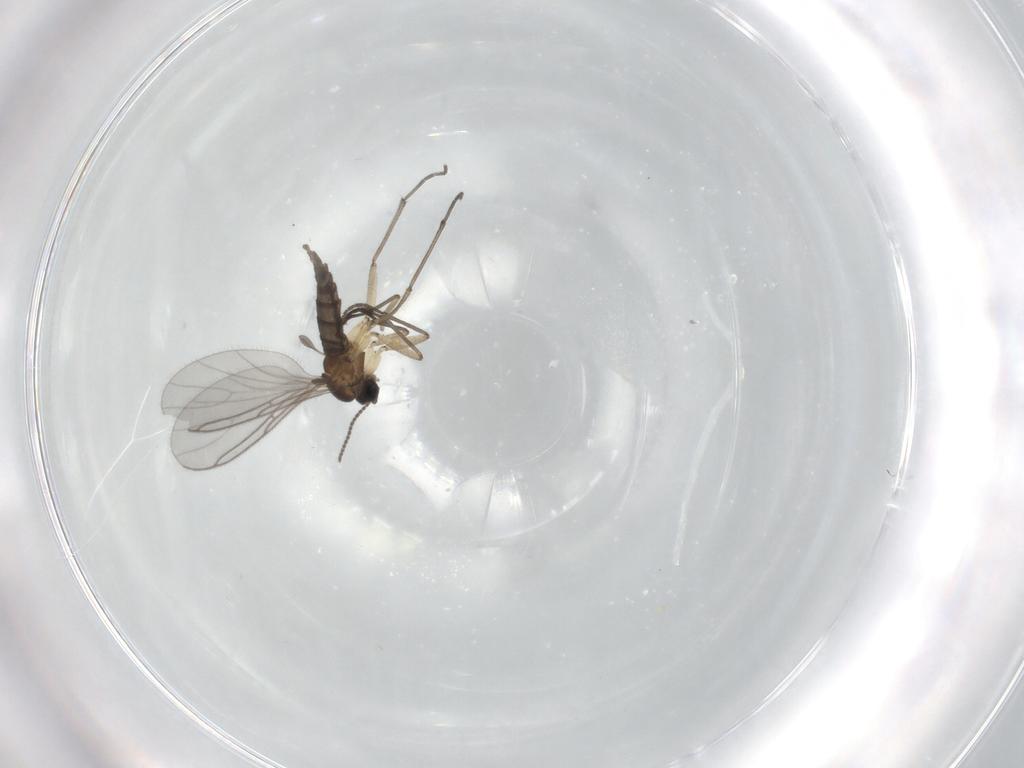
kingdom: Animalia
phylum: Arthropoda
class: Insecta
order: Diptera
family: Sciaridae
